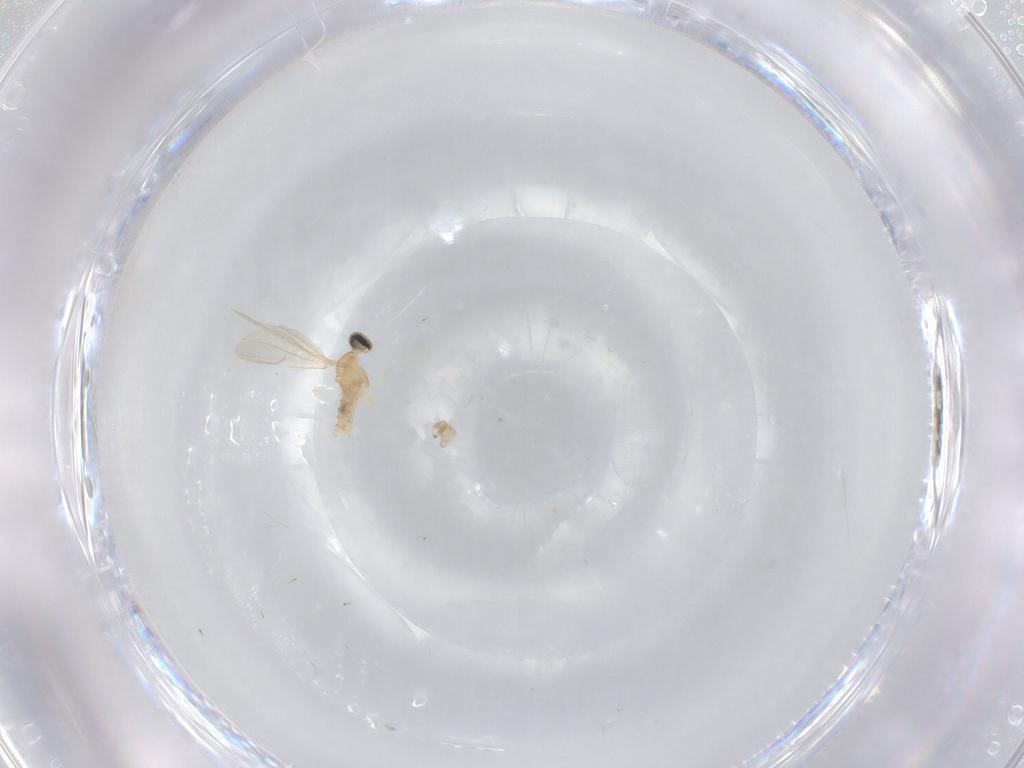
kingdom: Animalia
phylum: Arthropoda
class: Insecta
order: Diptera
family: Cecidomyiidae
